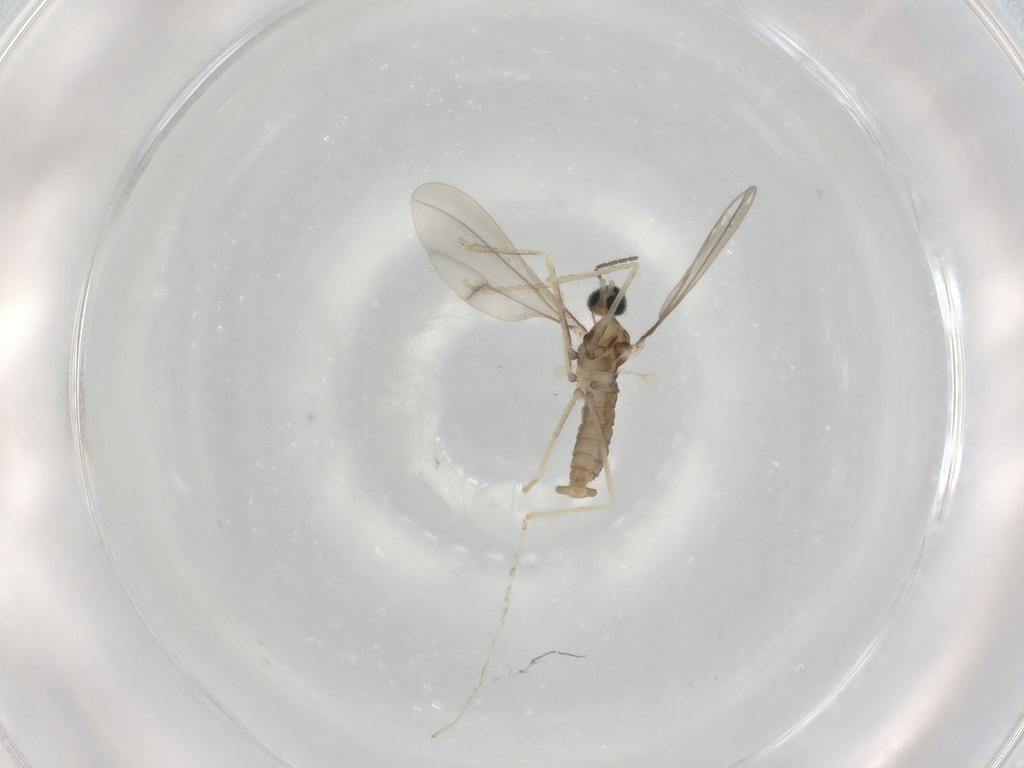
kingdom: Animalia
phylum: Arthropoda
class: Insecta
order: Diptera
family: Cecidomyiidae
